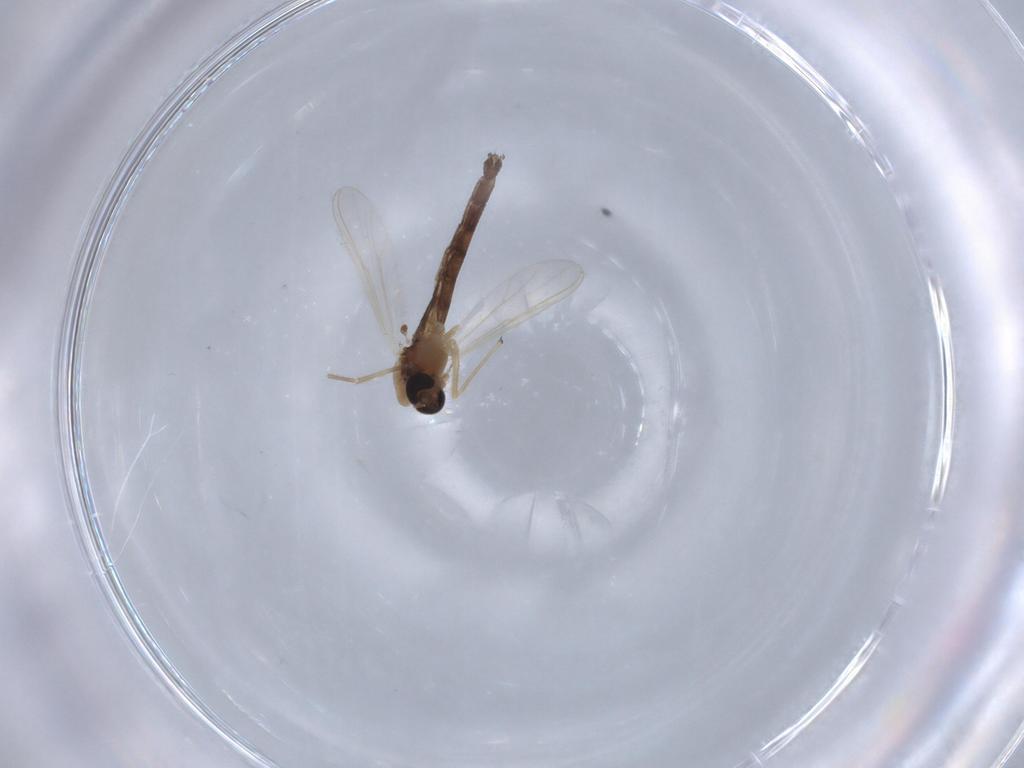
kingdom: Animalia
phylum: Arthropoda
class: Insecta
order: Diptera
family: Chironomidae
